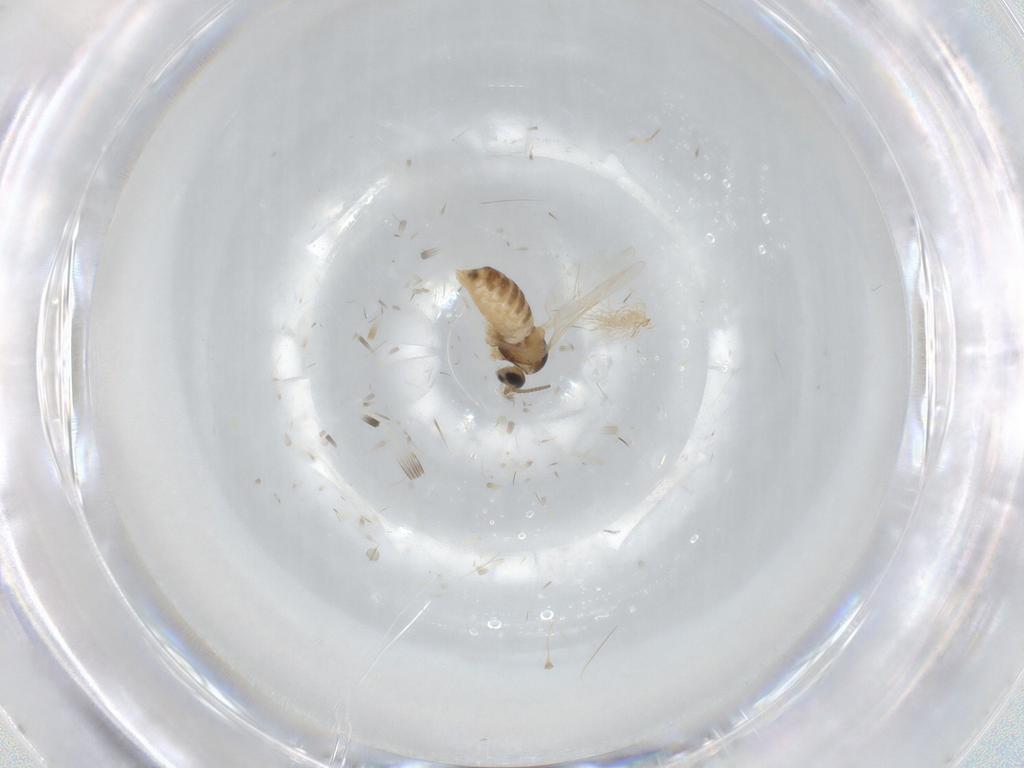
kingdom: Animalia
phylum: Arthropoda
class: Insecta
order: Diptera
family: Cecidomyiidae
